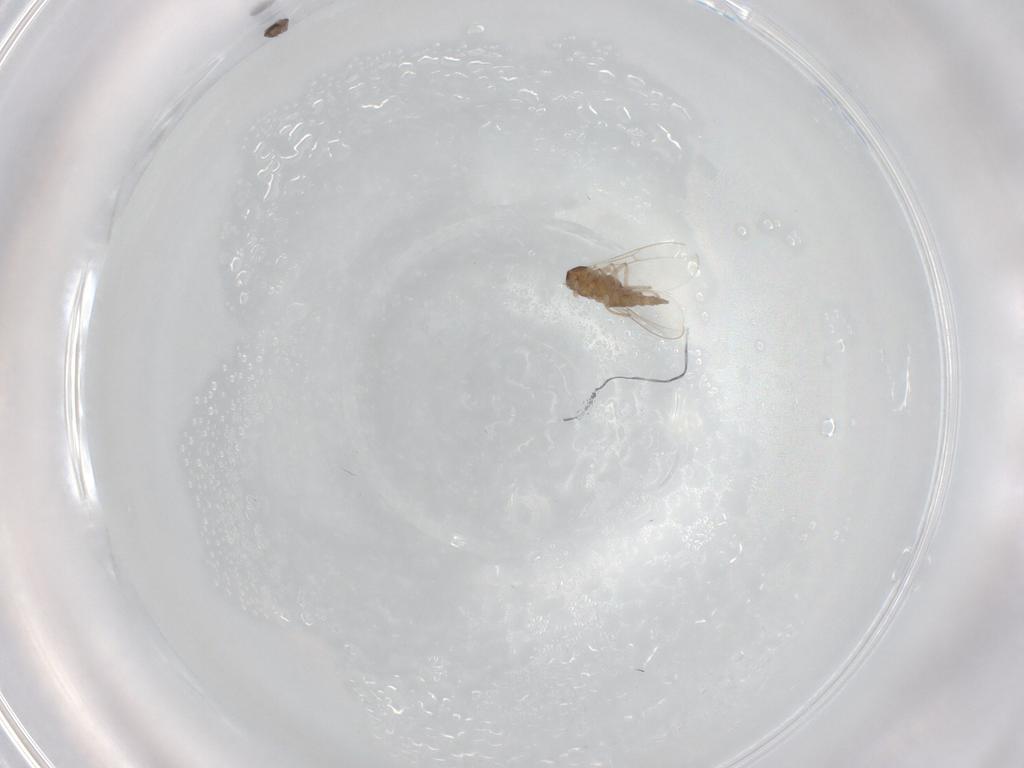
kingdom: Animalia
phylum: Arthropoda
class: Insecta
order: Diptera
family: Cecidomyiidae
